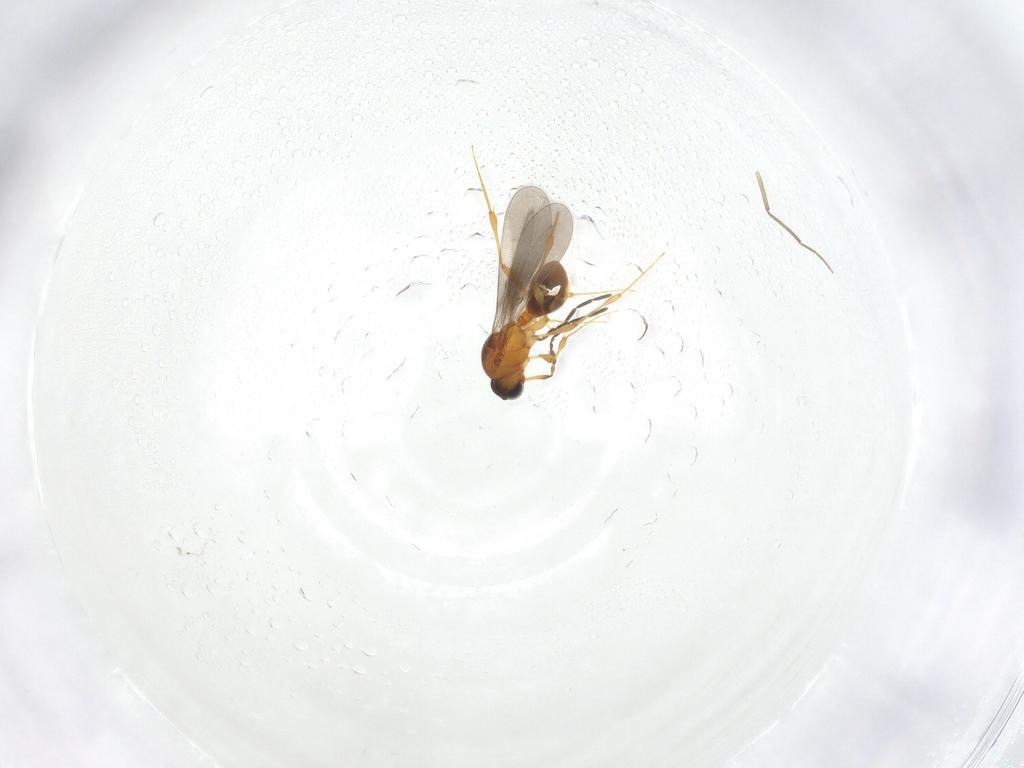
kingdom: Animalia
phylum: Arthropoda
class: Insecta
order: Hymenoptera
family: Platygastridae
